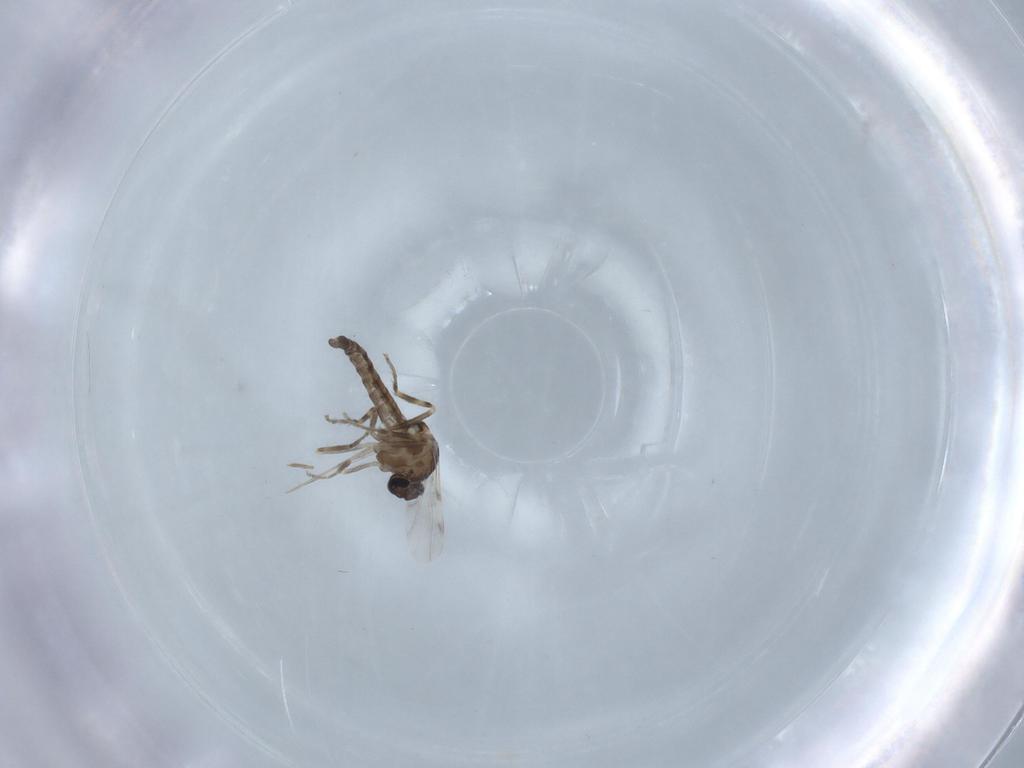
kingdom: Animalia
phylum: Arthropoda
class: Insecta
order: Diptera
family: Ceratopogonidae
